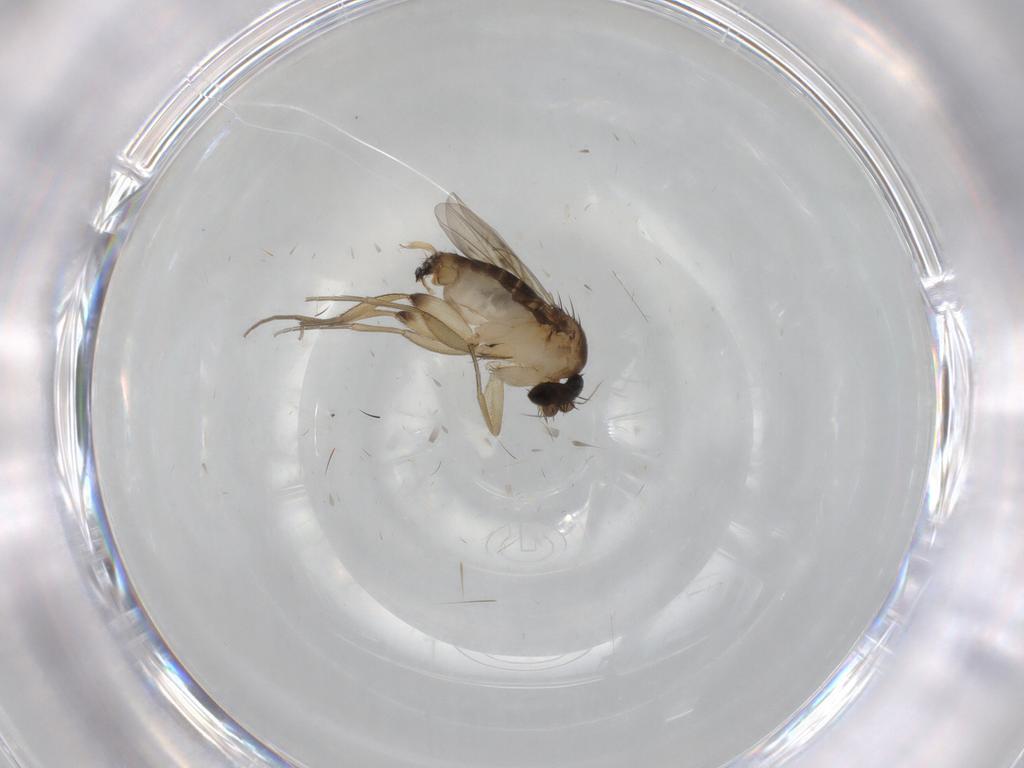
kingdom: Animalia
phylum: Arthropoda
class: Insecta
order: Diptera
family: Phoridae
